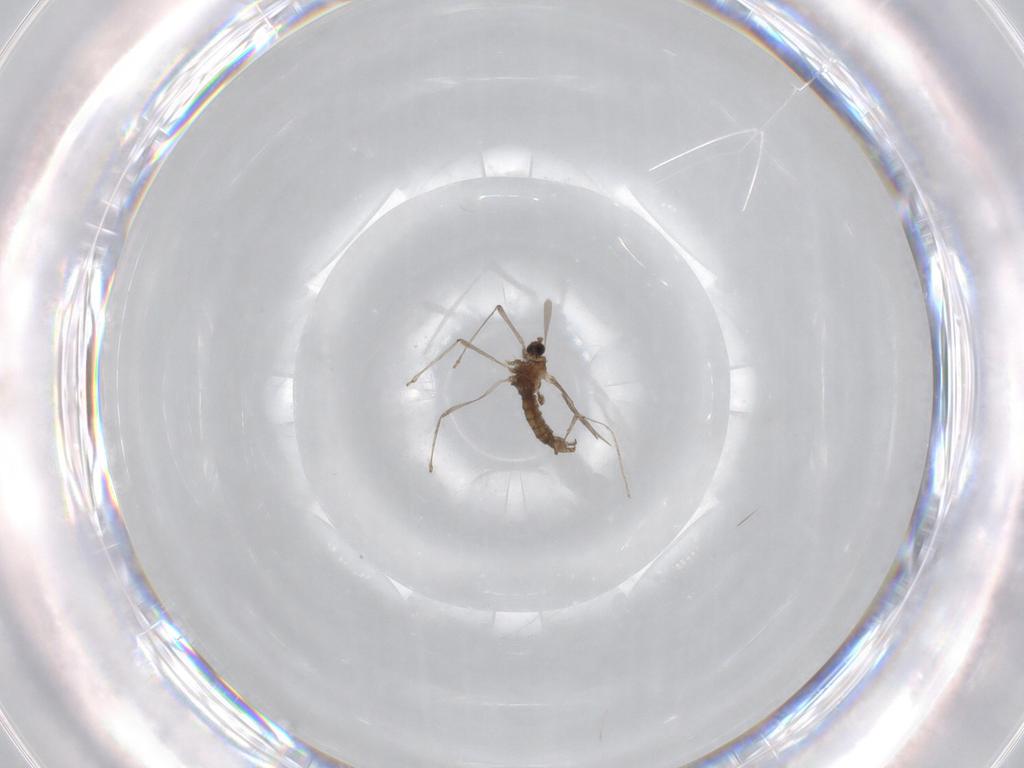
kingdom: Animalia
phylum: Arthropoda
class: Insecta
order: Diptera
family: Cecidomyiidae
